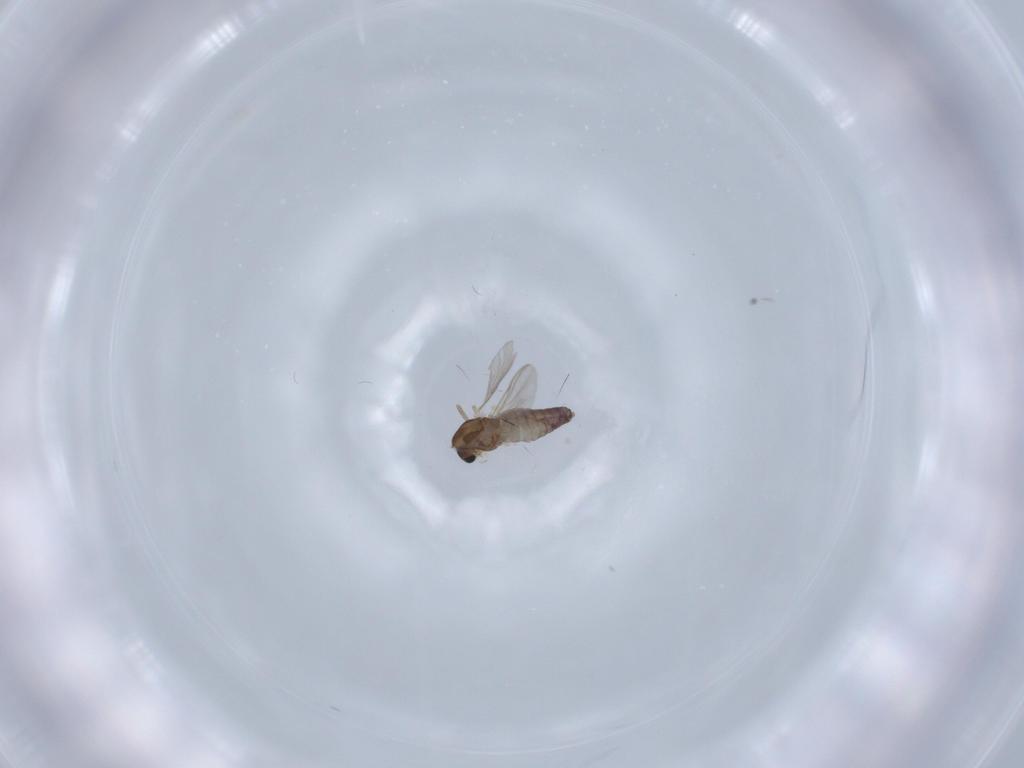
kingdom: Animalia
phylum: Arthropoda
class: Insecta
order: Diptera
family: Chironomidae
